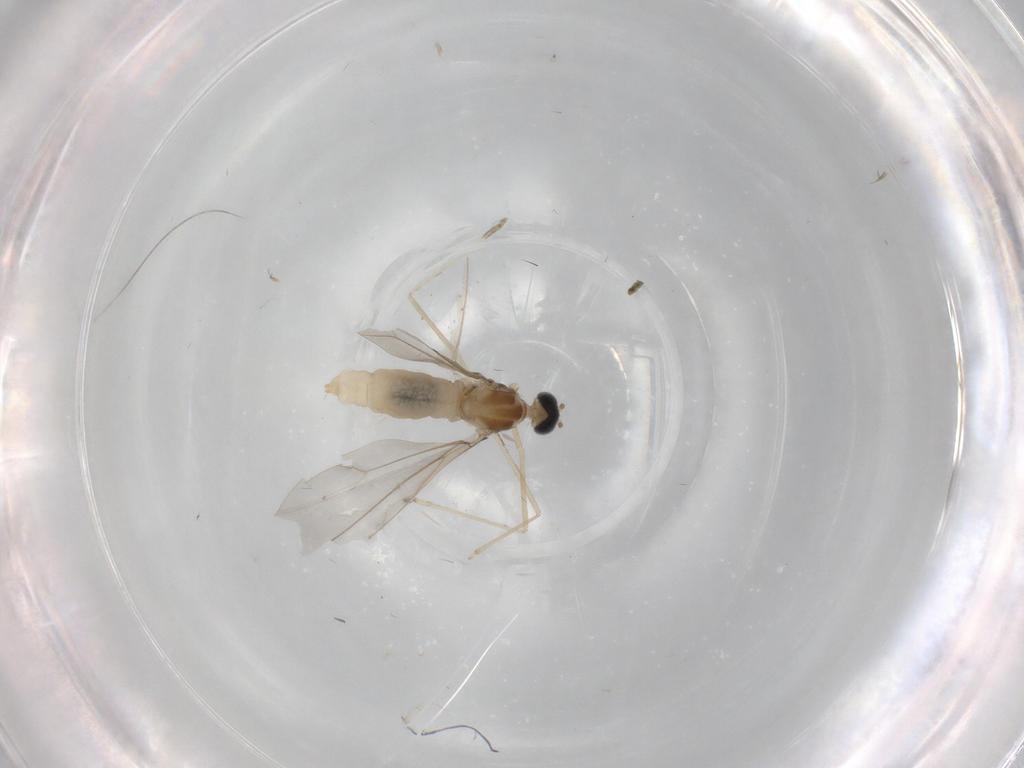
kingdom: Animalia
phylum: Arthropoda
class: Insecta
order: Diptera
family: Cecidomyiidae
